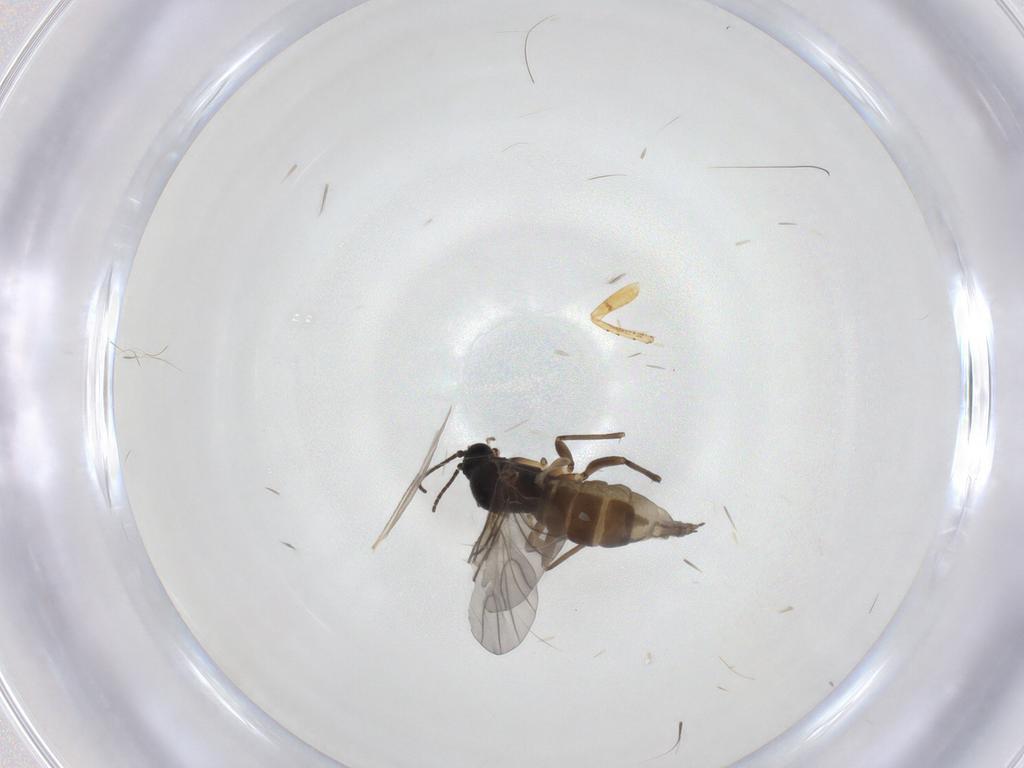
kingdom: Animalia
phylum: Arthropoda
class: Insecta
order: Diptera
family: Sciaridae
